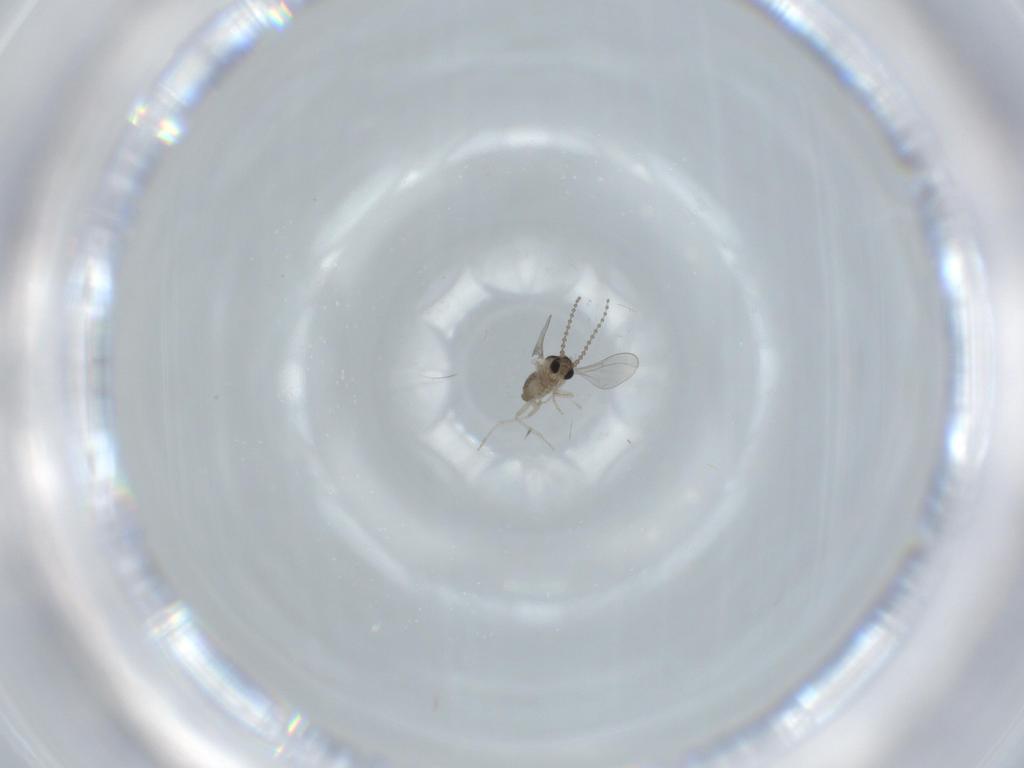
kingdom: Animalia
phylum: Arthropoda
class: Insecta
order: Diptera
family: Cecidomyiidae
